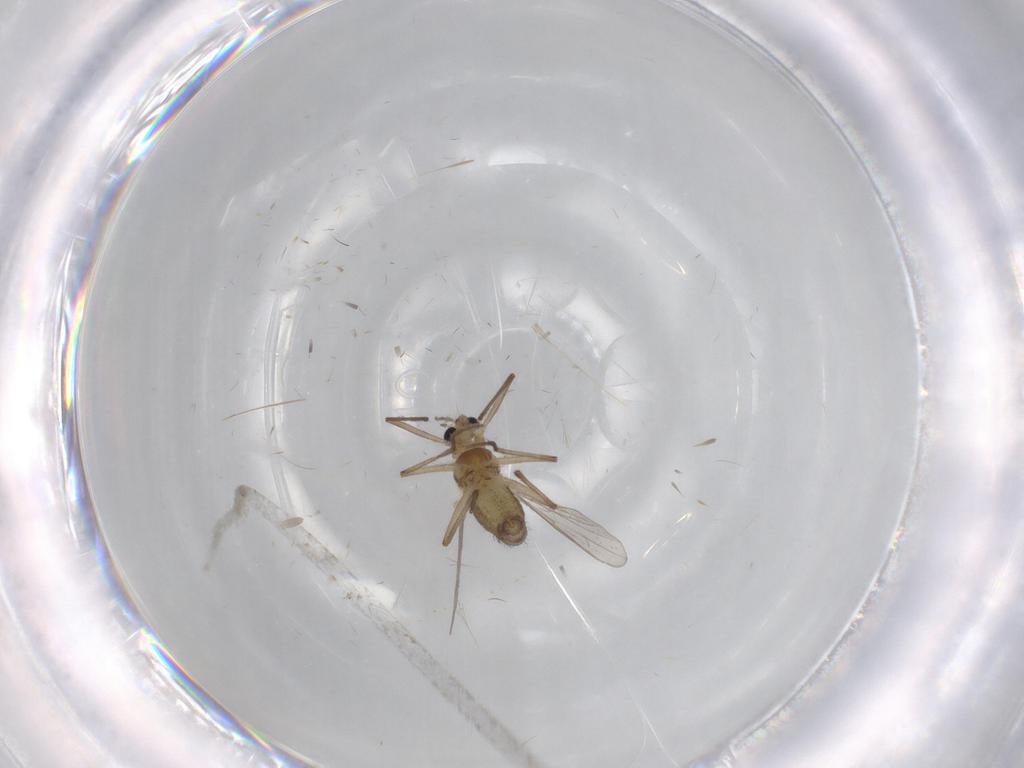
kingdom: Animalia
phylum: Arthropoda
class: Insecta
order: Diptera
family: Chironomidae
